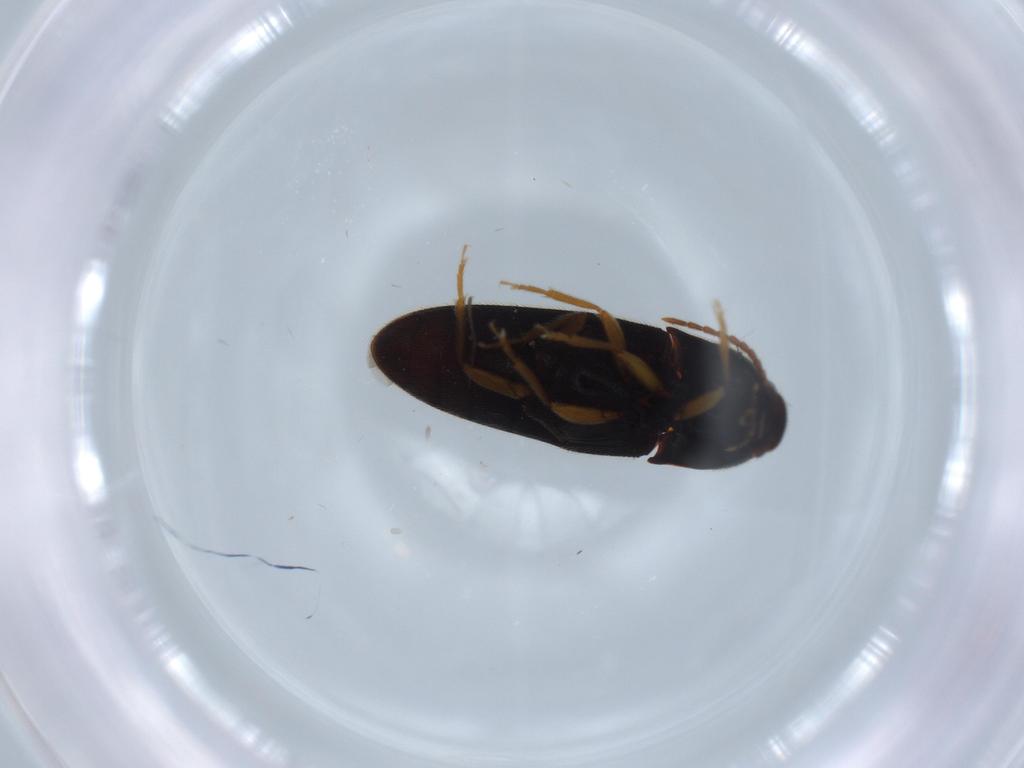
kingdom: Animalia
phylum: Arthropoda
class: Insecta
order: Coleoptera
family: Elateridae
